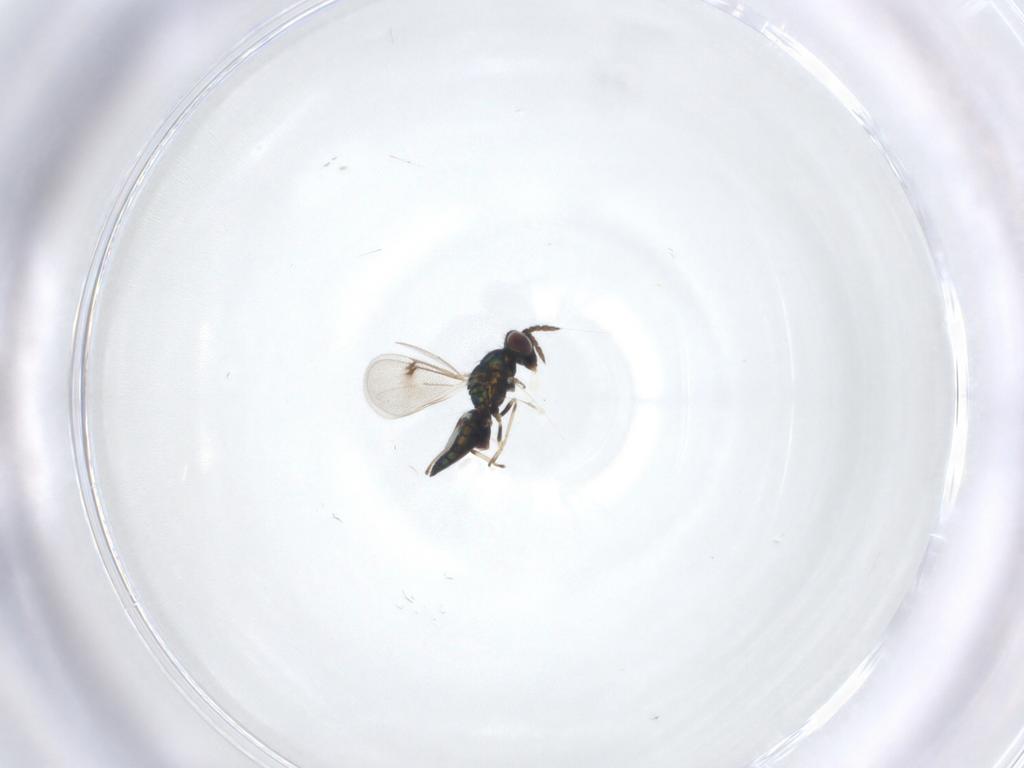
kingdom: Animalia
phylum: Arthropoda
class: Insecta
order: Hymenoptera
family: Eulophidae
